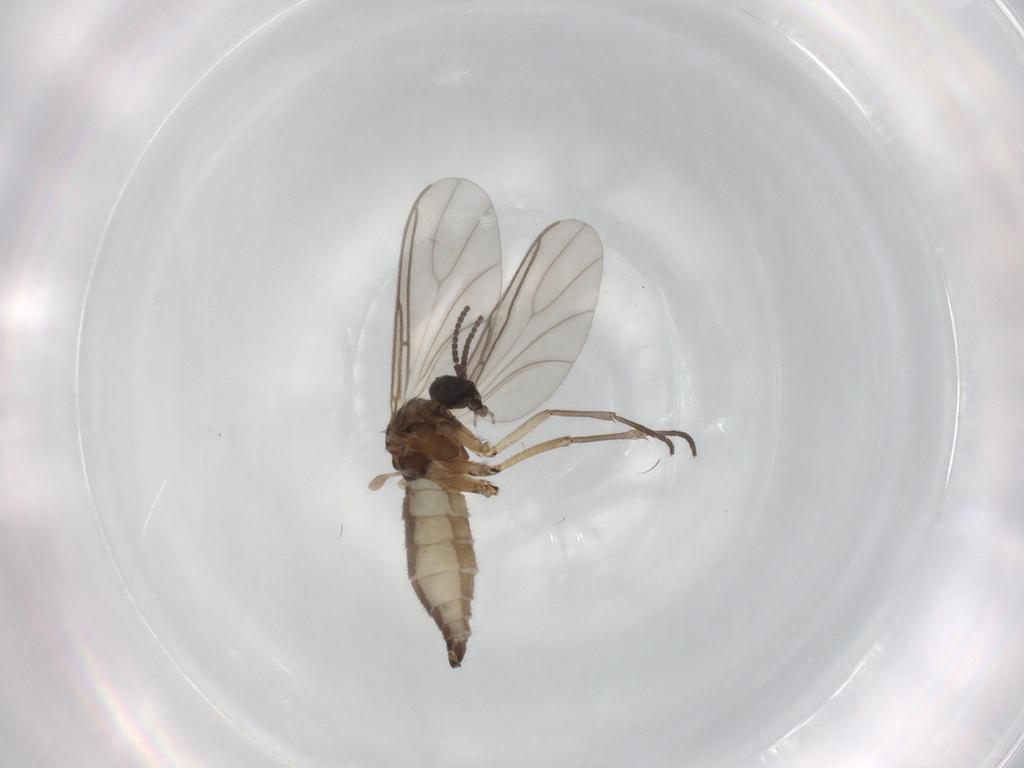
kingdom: Animalia
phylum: Arthropoda
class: Insecta
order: Diptera
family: Sciaridae
